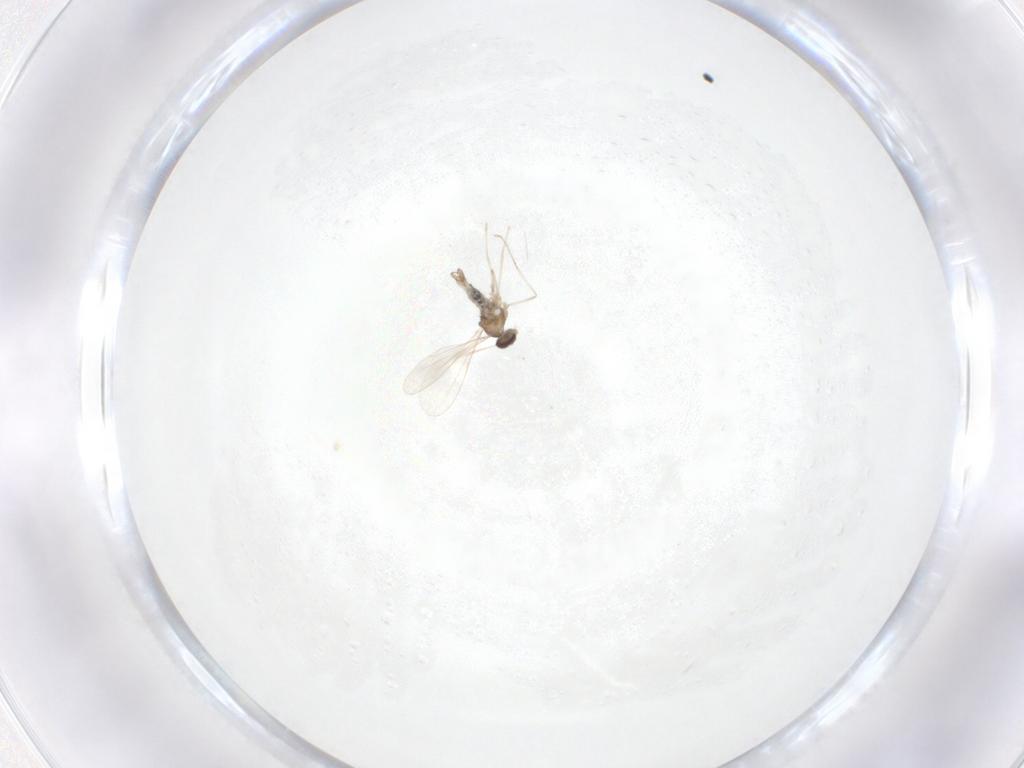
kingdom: Animalia
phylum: Arthropoda
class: Insecta
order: Diptera
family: Cecidomyiidae
